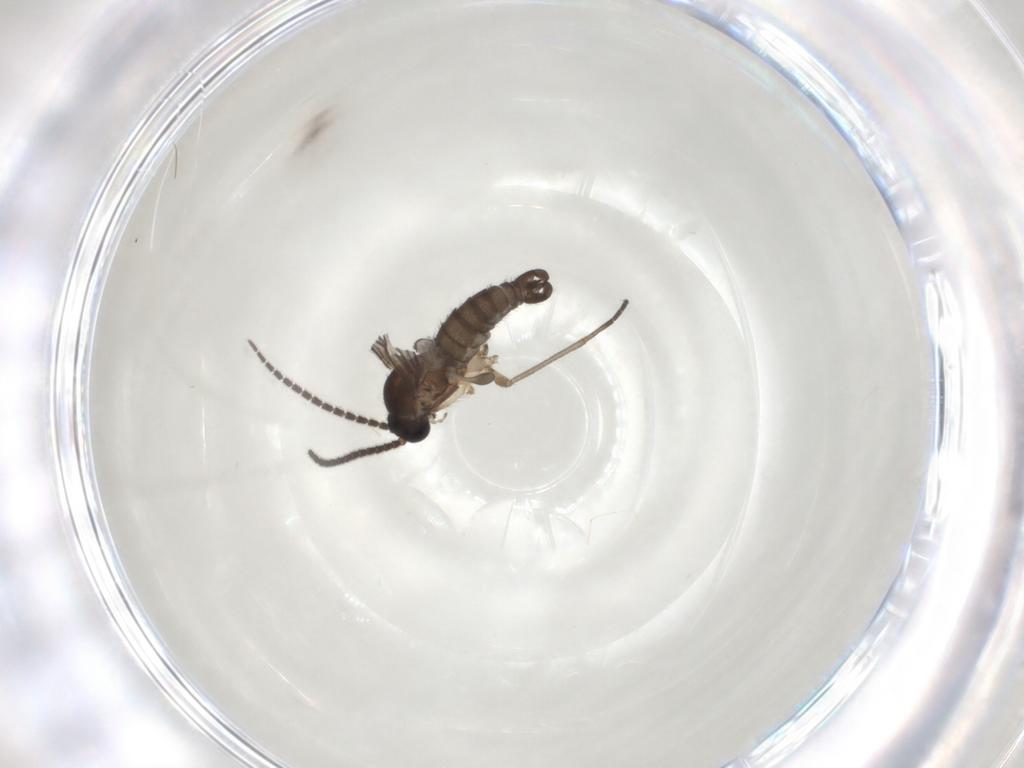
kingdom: Animalia
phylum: Arthropoda
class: Insecta
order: Diptera
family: Sciaridae
